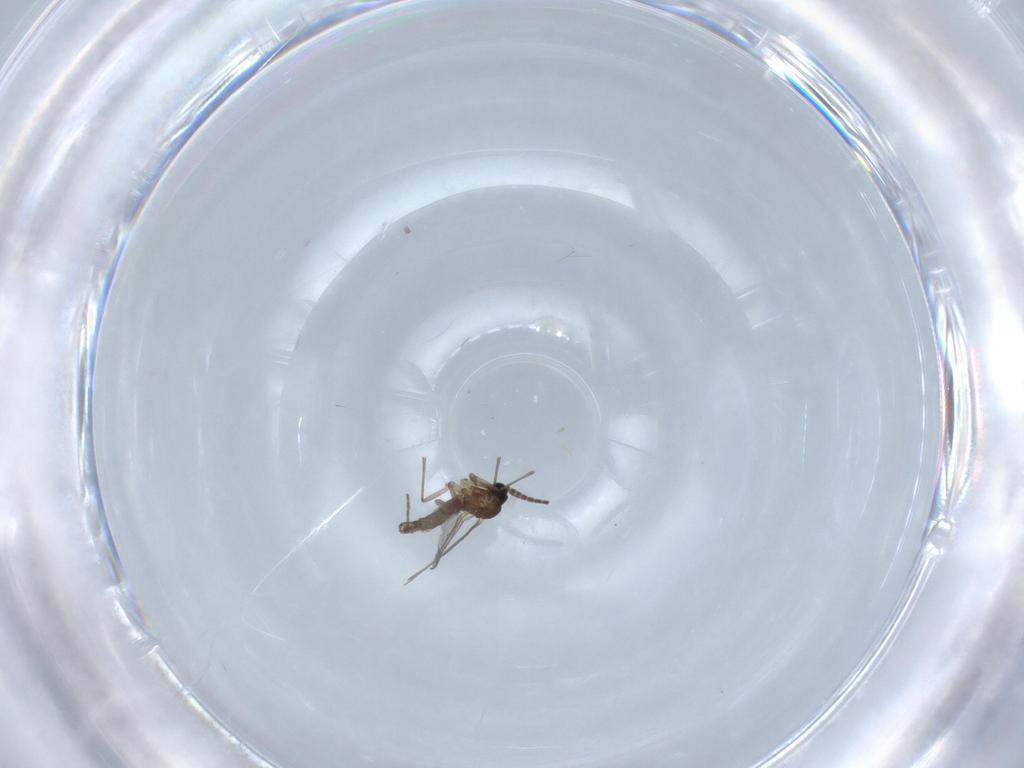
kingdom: Animalia
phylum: Arthropoda
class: Insecta
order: Diptera
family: Sciaridae
